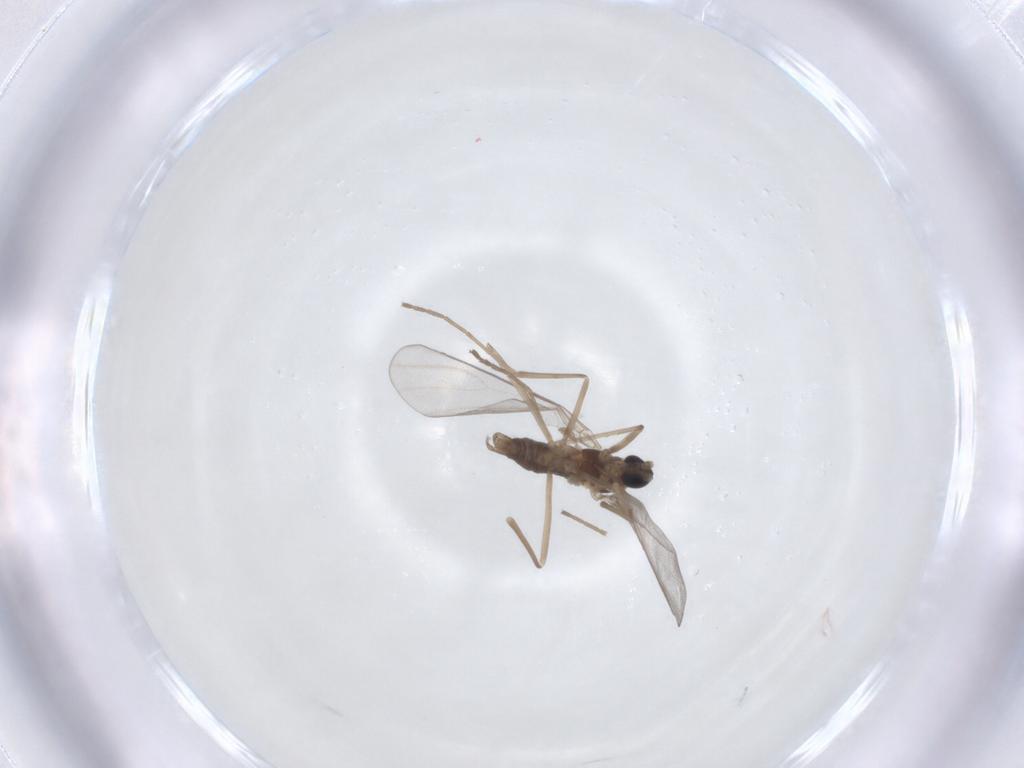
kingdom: Animalia
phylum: Arthropoda
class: Insecta
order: Diptera
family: Cecidomyiidae
